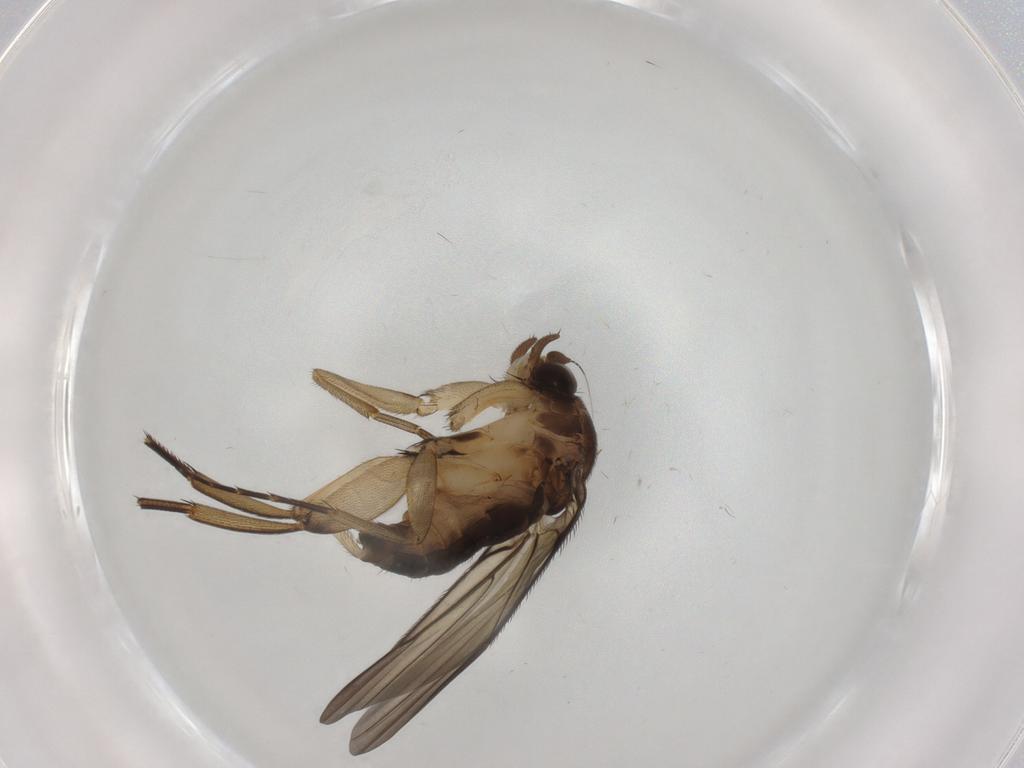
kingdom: Animalia
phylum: Arthropoda
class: Insecta
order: Diptera
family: Phoridae
